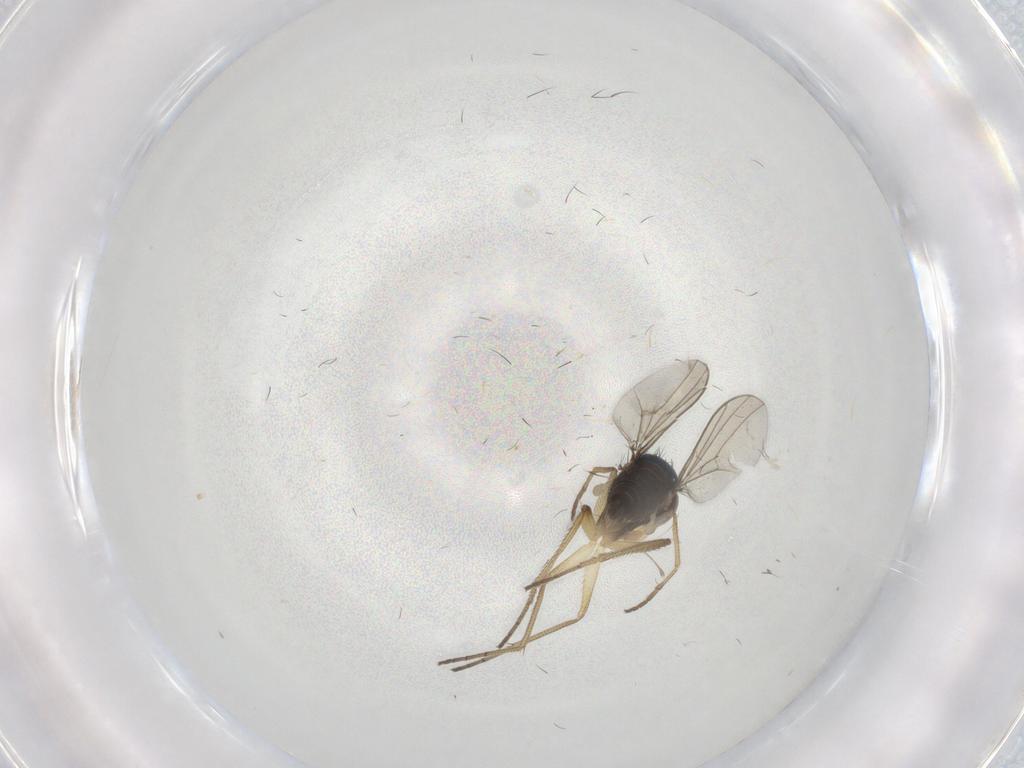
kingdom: Animalia
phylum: Arthropoda
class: Insecta
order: Diptera
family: Dolichopodidae
